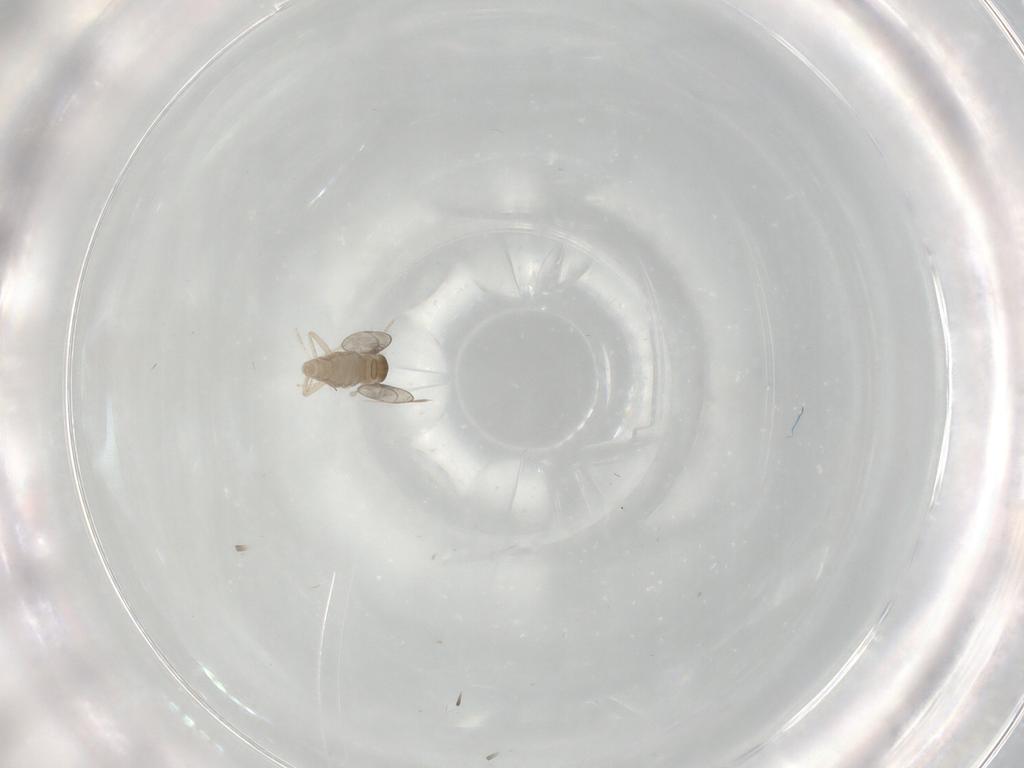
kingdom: Animalia
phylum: Arthropoda
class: Insecta
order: Diptera
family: Cecidomyiidae
